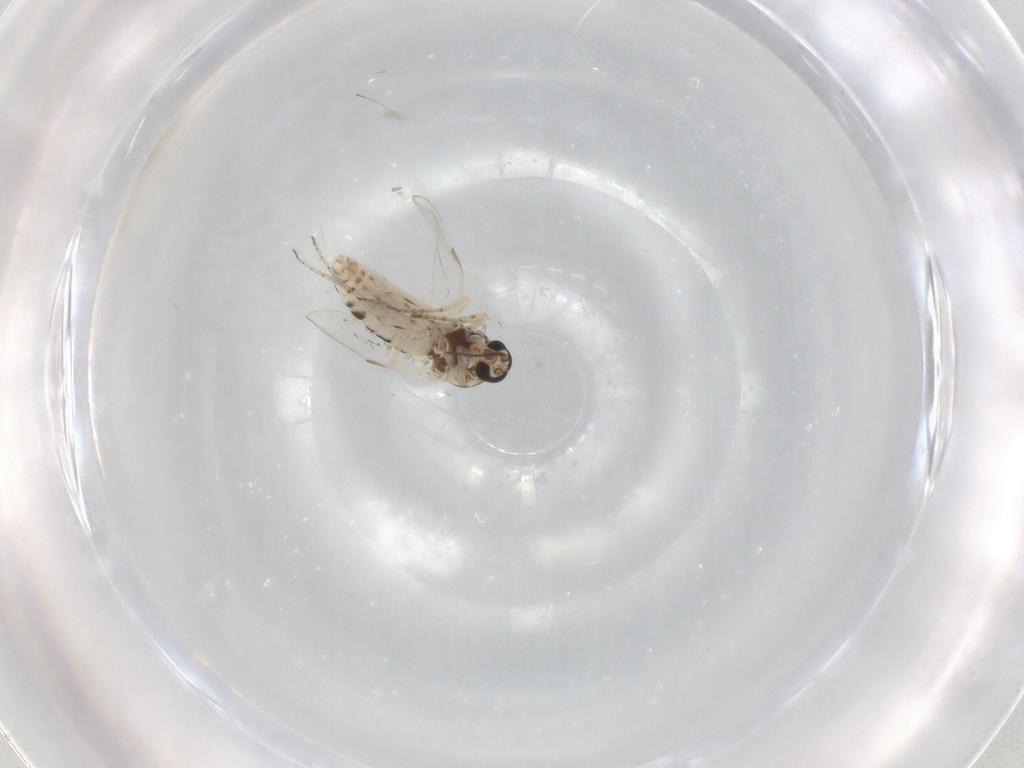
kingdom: Animalia
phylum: Arthropoda
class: Insecta
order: Diptera
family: Ceratopogonidae
